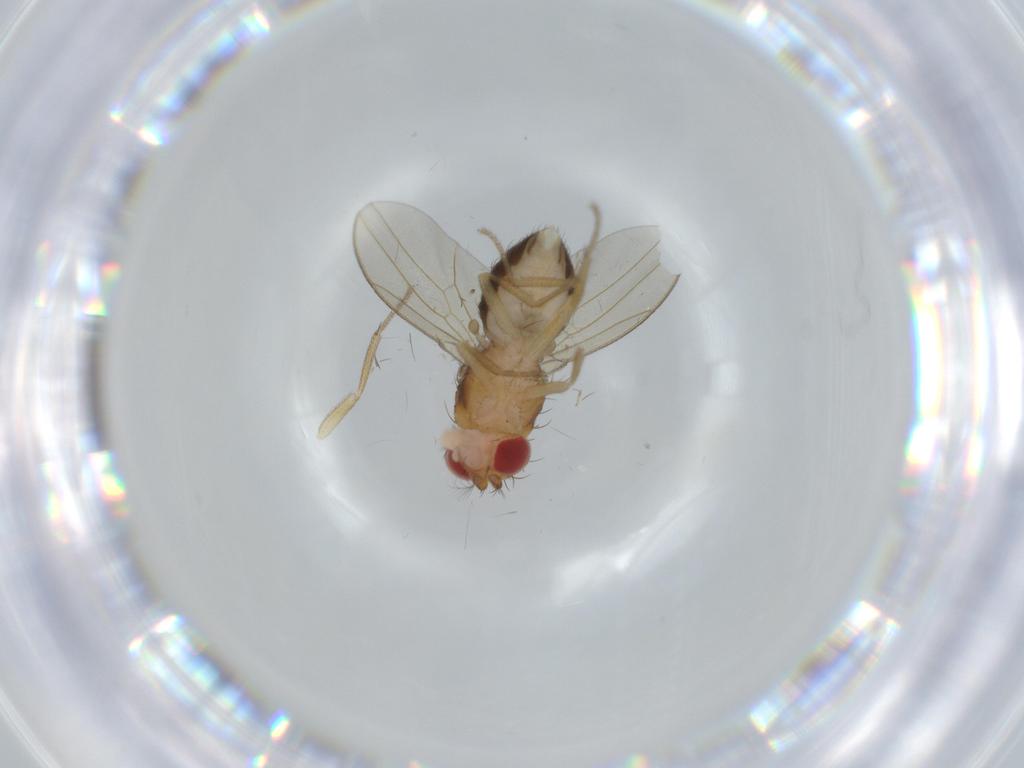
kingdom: Animalia
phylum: Arthropoda
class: Insecta
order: Diptera
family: Drosophilidae
